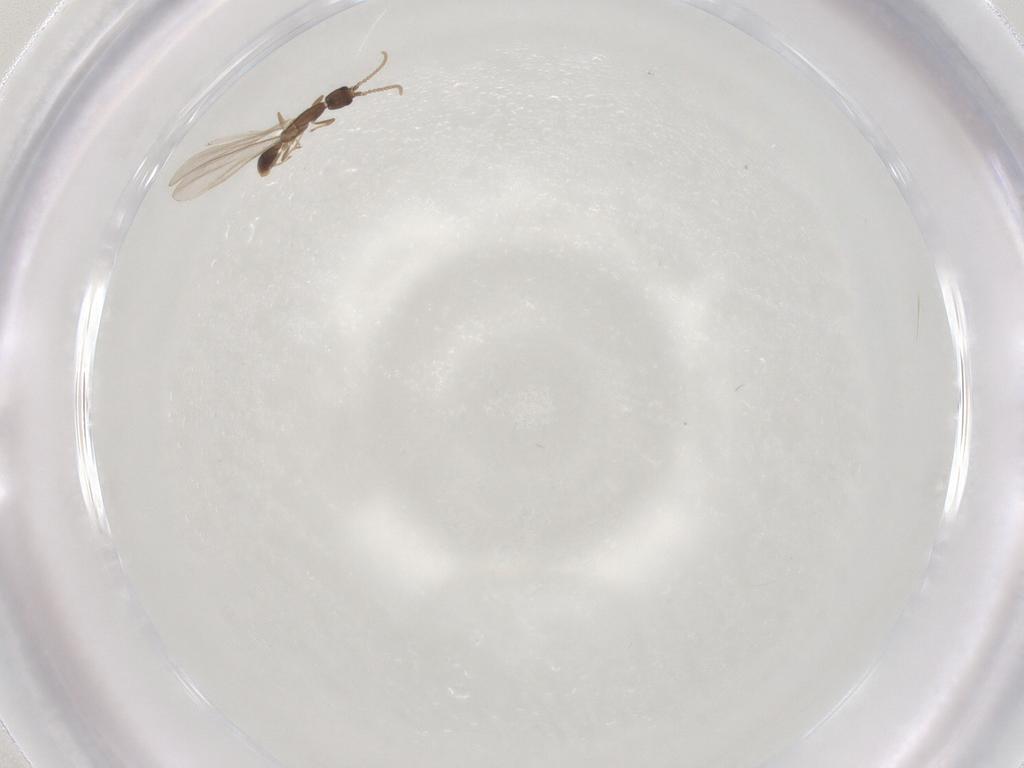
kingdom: Animalia
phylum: Arthropoda
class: Insecta
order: Hymenoptera
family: Formicidae
